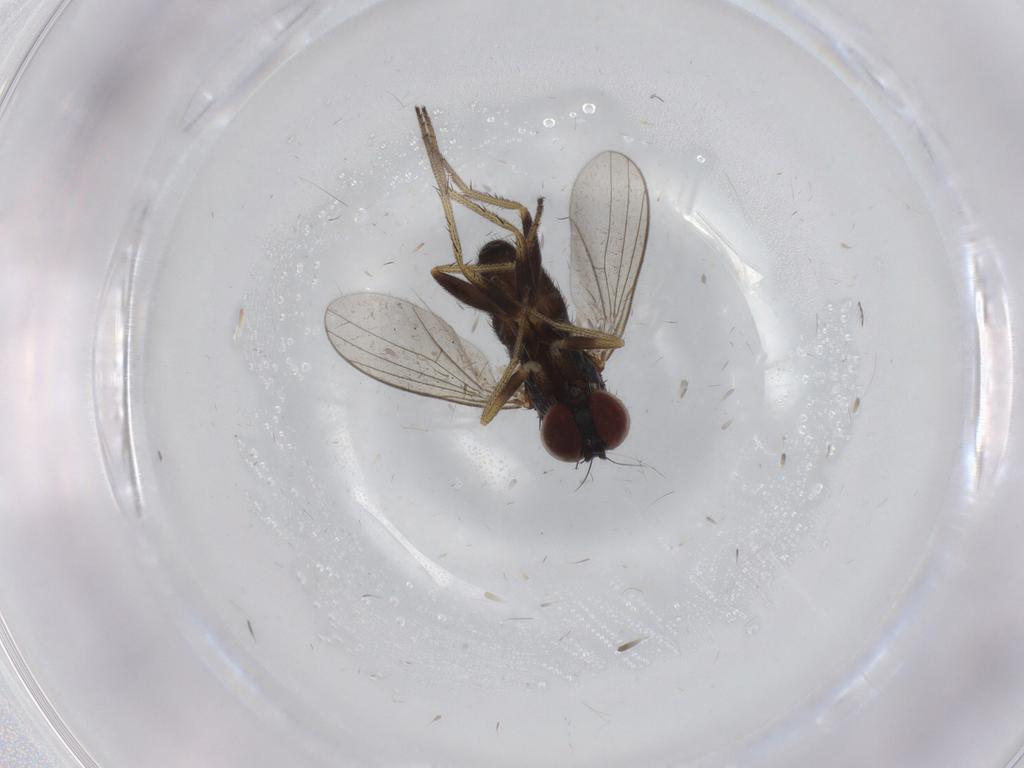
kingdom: Animalia
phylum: Arthropoda
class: Insecta
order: Diptera
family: Dolichopodidae
